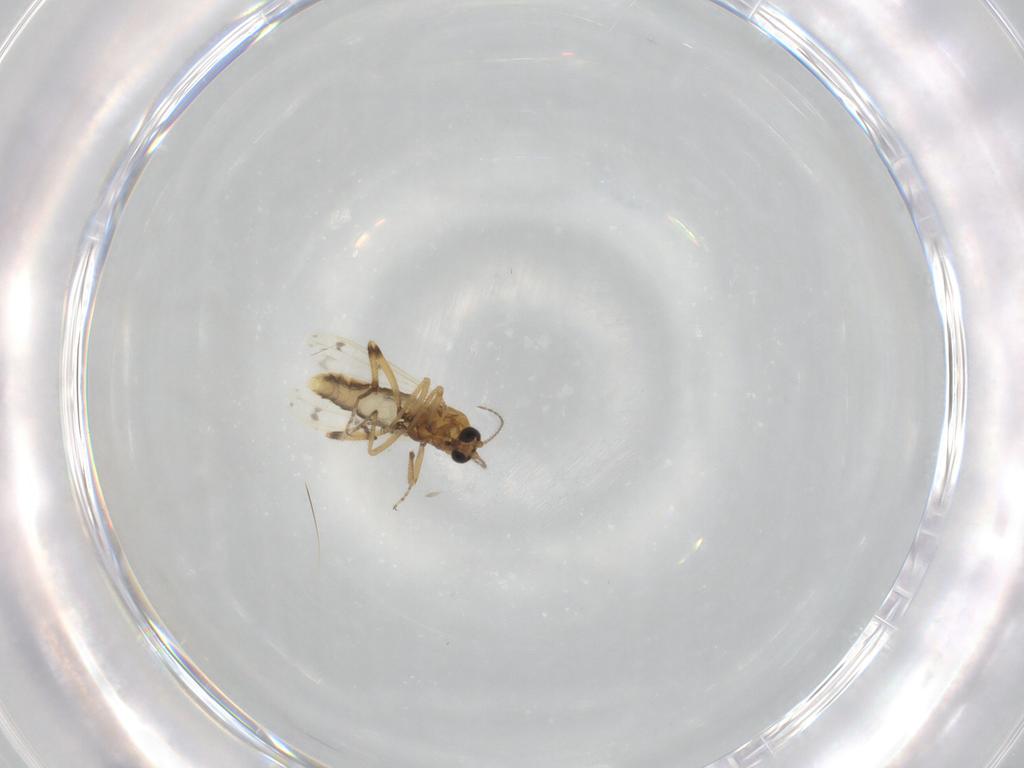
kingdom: Animalia
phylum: Arthropoda
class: Insecta
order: Diptera
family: Ceratopogonidae
